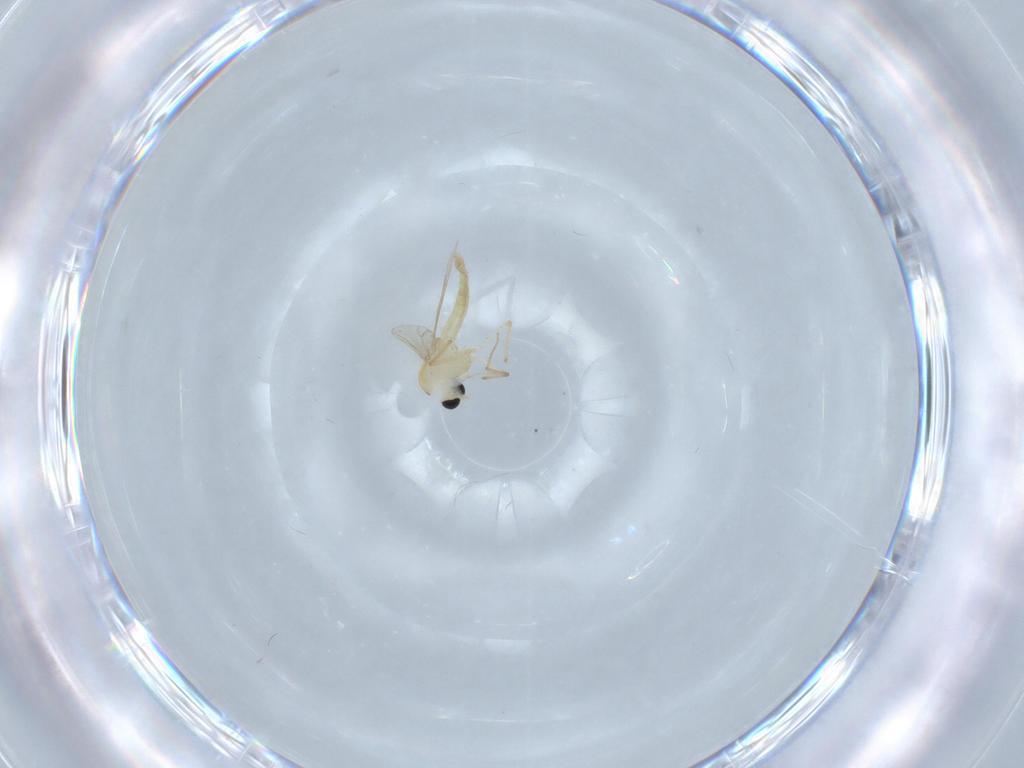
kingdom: Animalia
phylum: Arthropoda
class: Insecta
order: Diptera
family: Chironomidae
